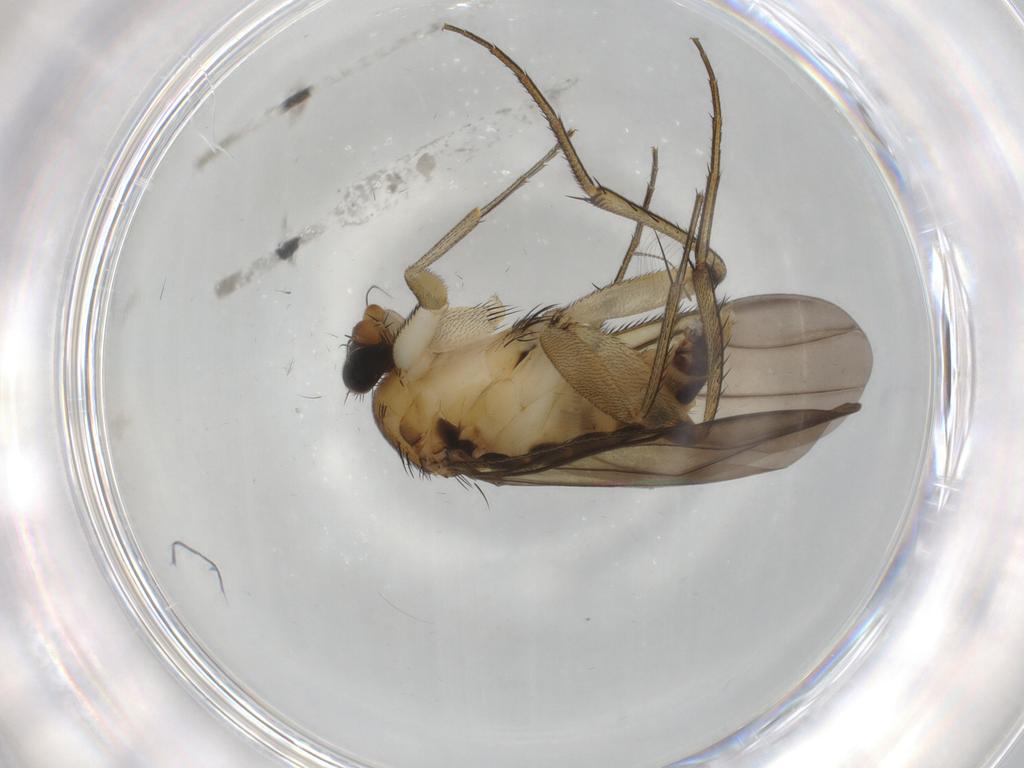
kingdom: Animalia
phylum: Arthropoda
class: Insecta
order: Diptera
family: Phoridae
